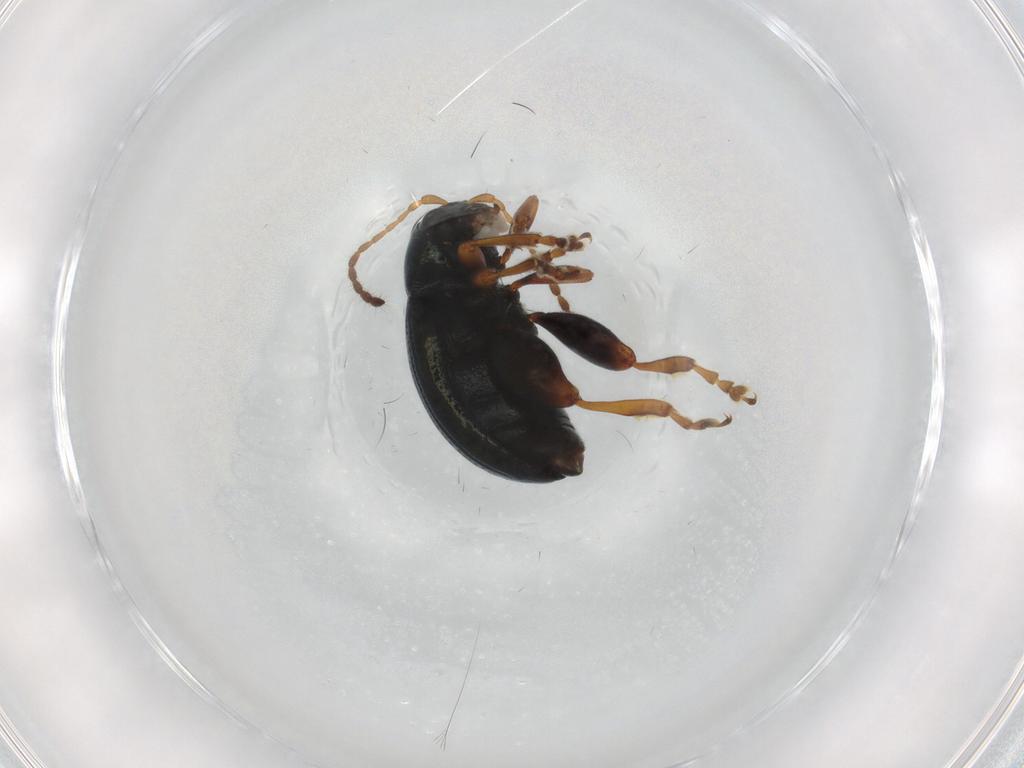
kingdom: Animalia
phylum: Arthropoda
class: Insecta
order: Coleoptera
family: Chrysomelidae
